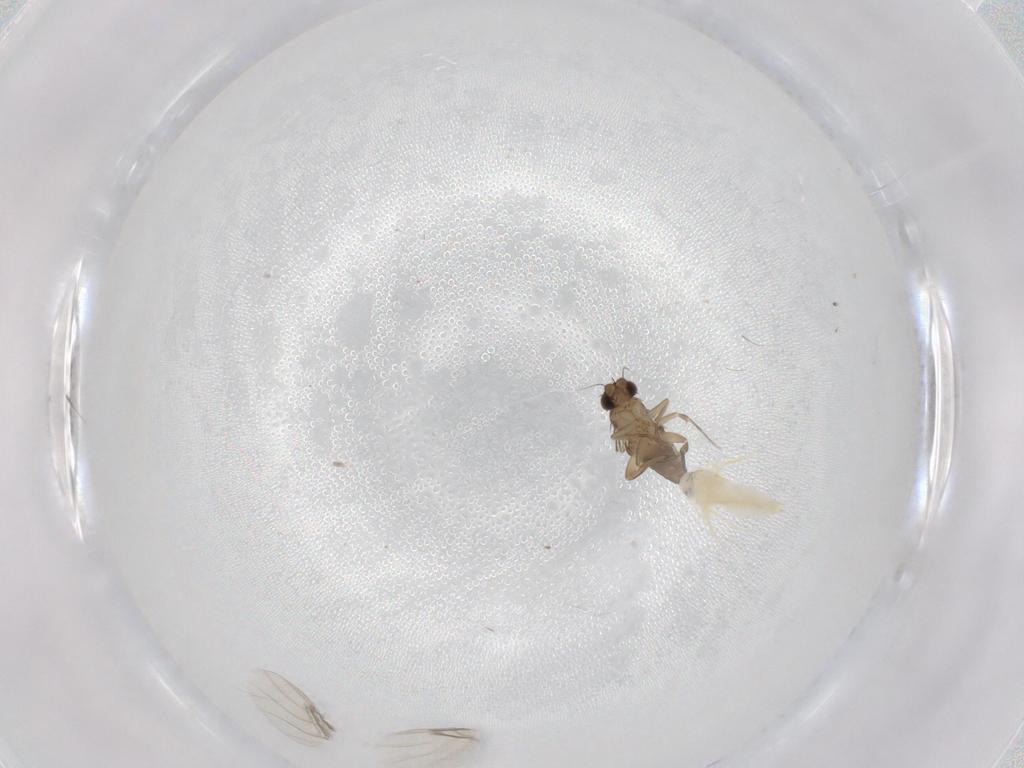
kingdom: Animalia
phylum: Arthropoda
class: Insecta
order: Diptera
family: Phoridae
